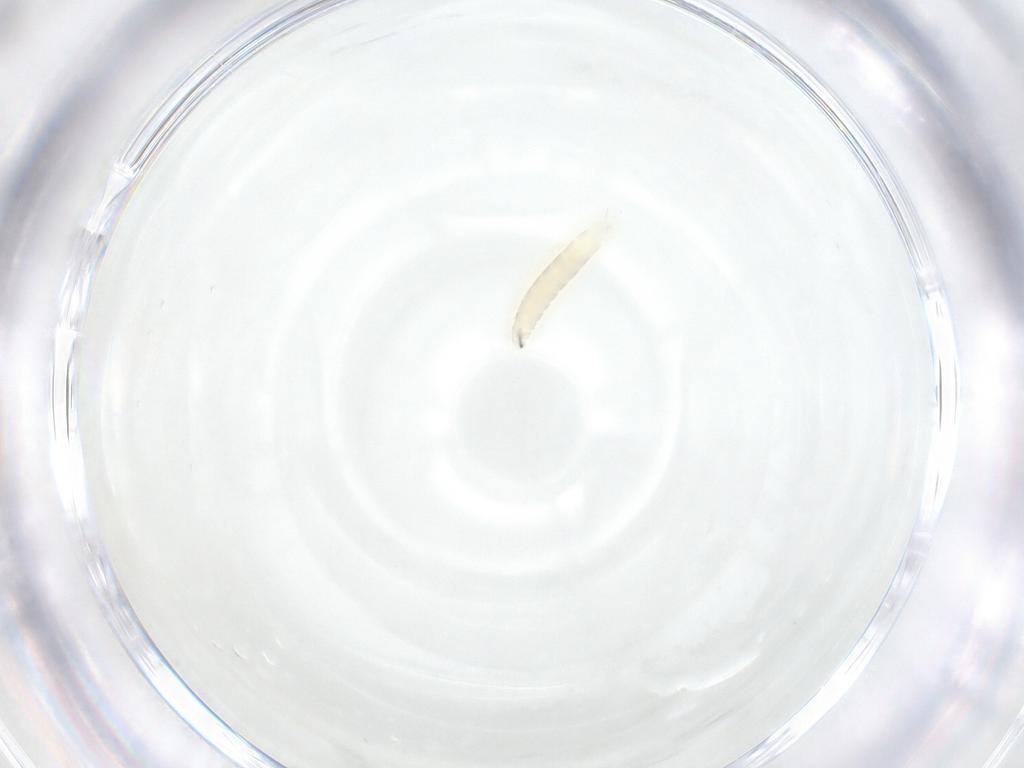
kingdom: Animalia
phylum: Arthropoda
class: Insecta
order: Diptera
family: Tachinidae
